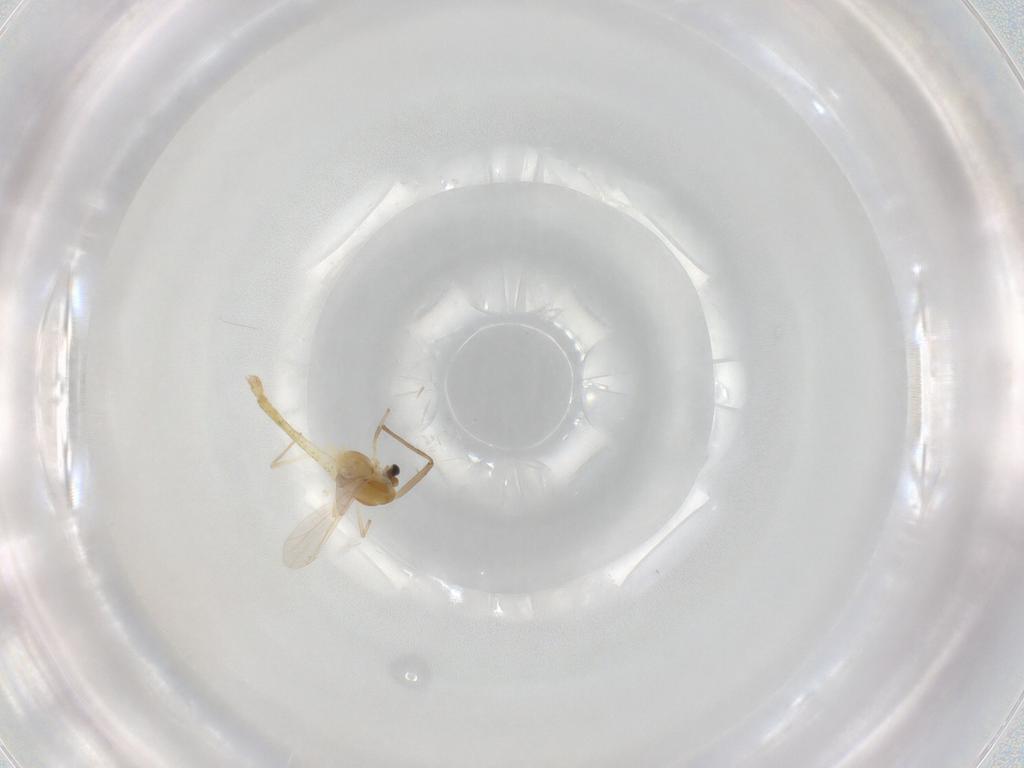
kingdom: Animalia
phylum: Arthropoda
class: Insecta
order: Diptera
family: Chironomidae
